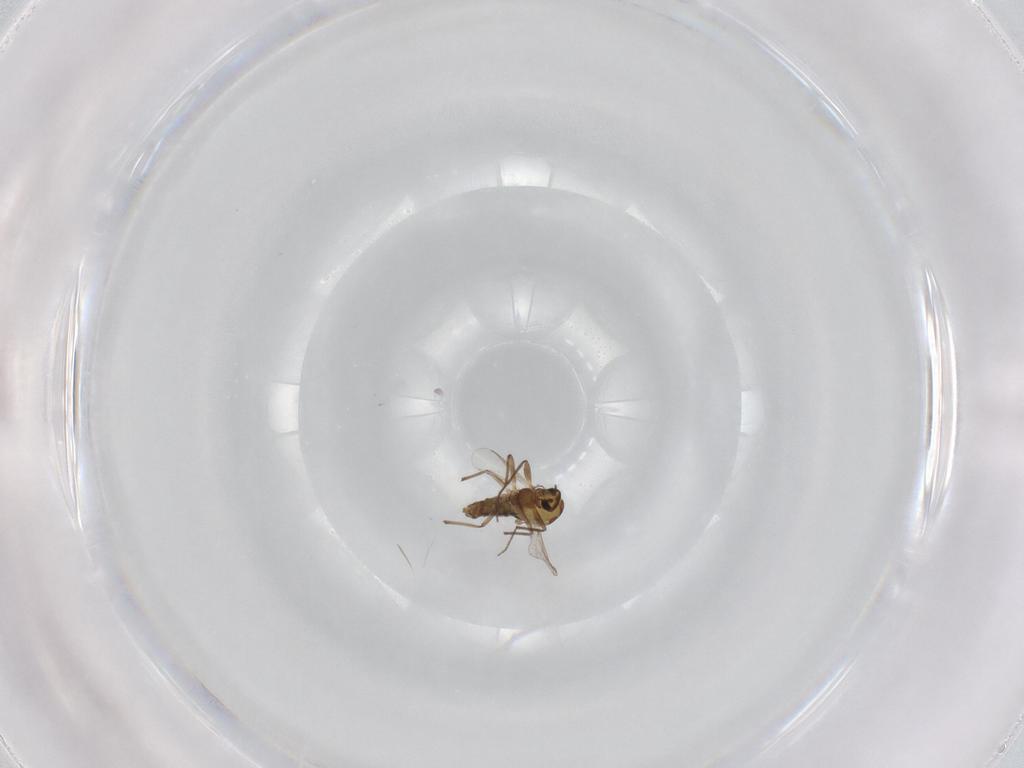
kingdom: Animalia
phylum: Arthropoda
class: Insecta
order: Diptera
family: Chironomidae
